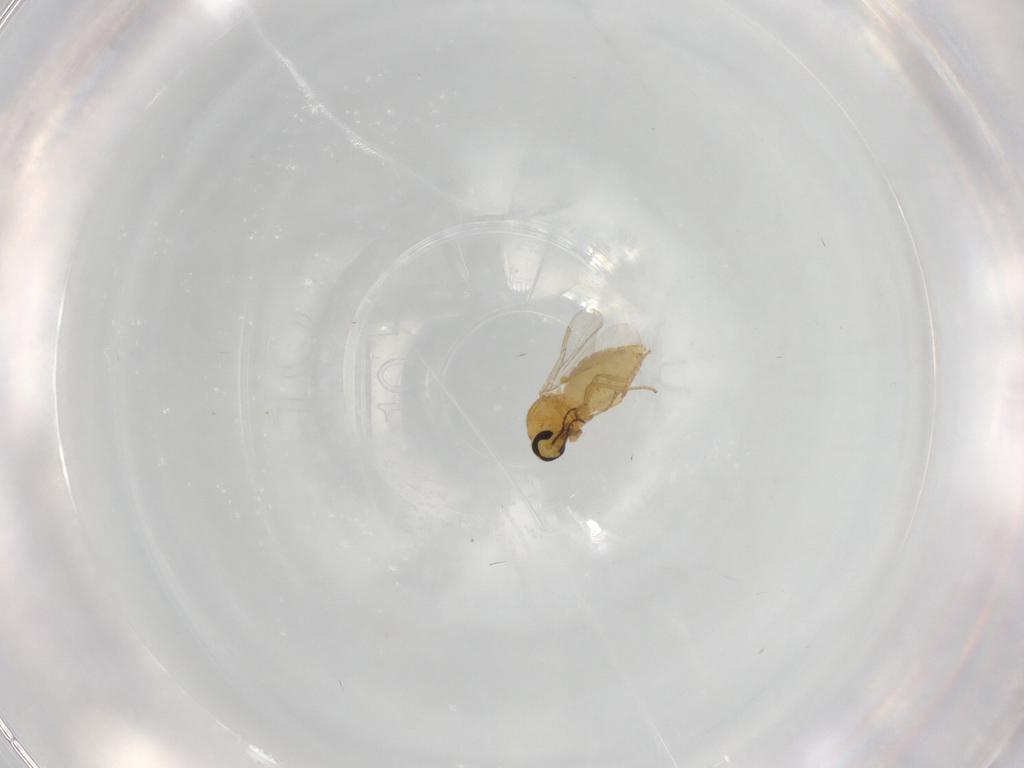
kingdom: Animalia
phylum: Arthropoda
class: Insecta
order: Diptera
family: Ceratopogonidae
